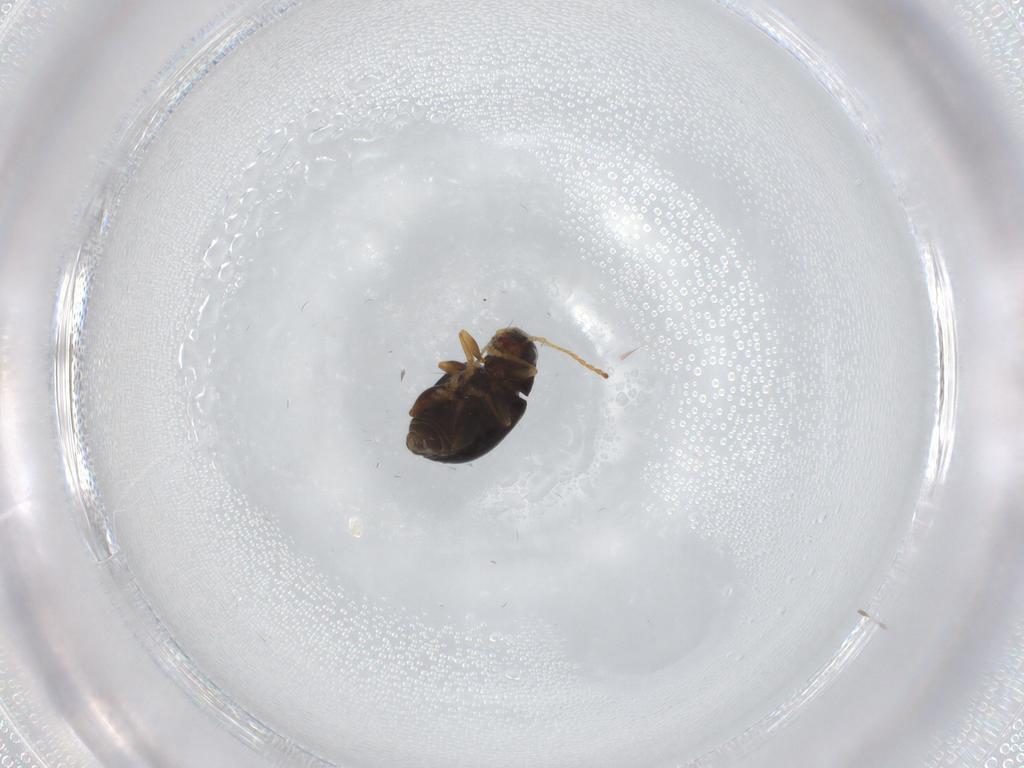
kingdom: Animalia
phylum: Arthropoda
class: Insecta
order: Coleoptera
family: Chrysomelidae
